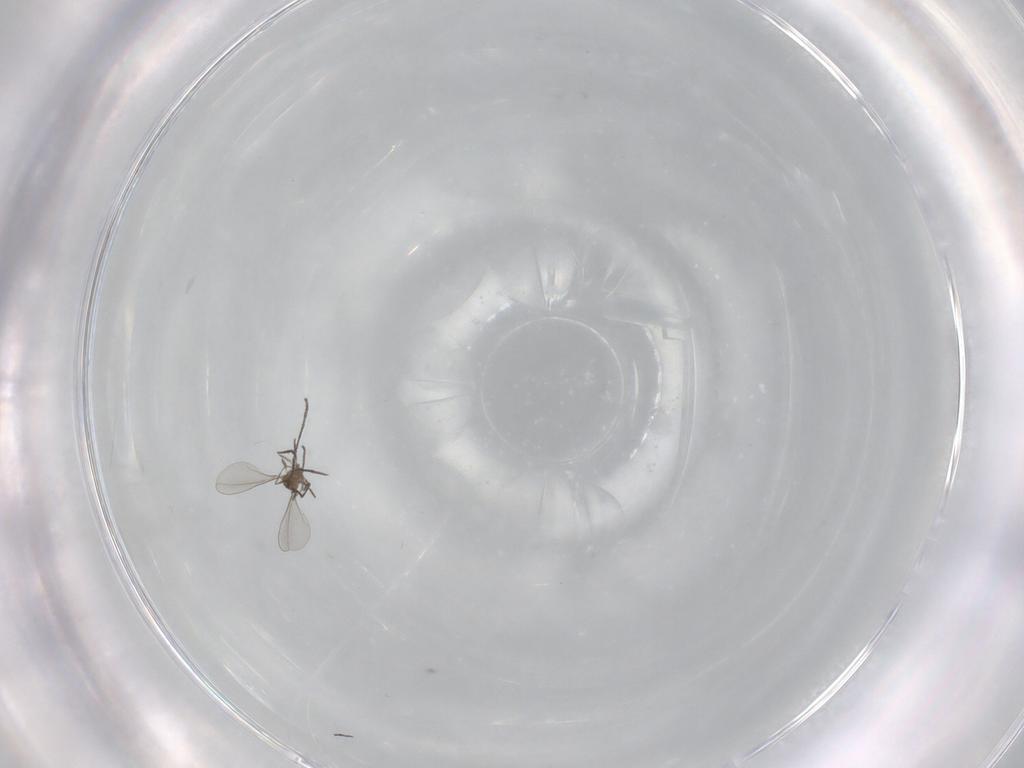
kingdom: Animalia
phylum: Arthropoda
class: Insecta
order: Diptera
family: Cecidomyiidae
